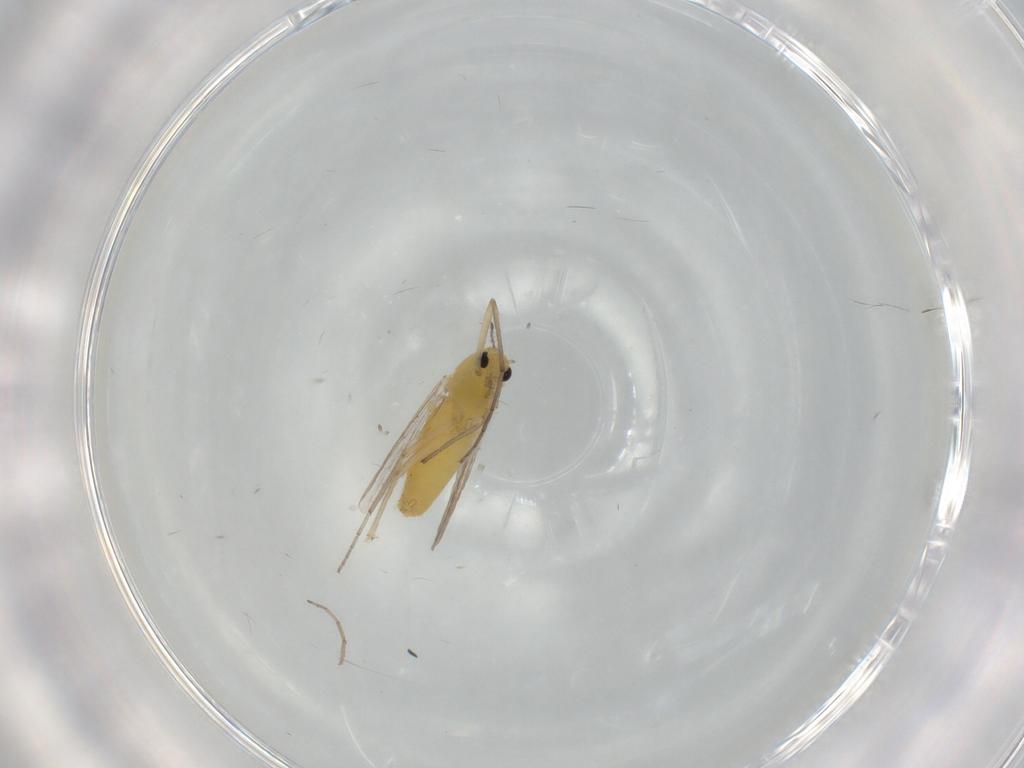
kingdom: Animalia
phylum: Arthropoda
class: Insecta
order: Diptera
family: Chironomidae
